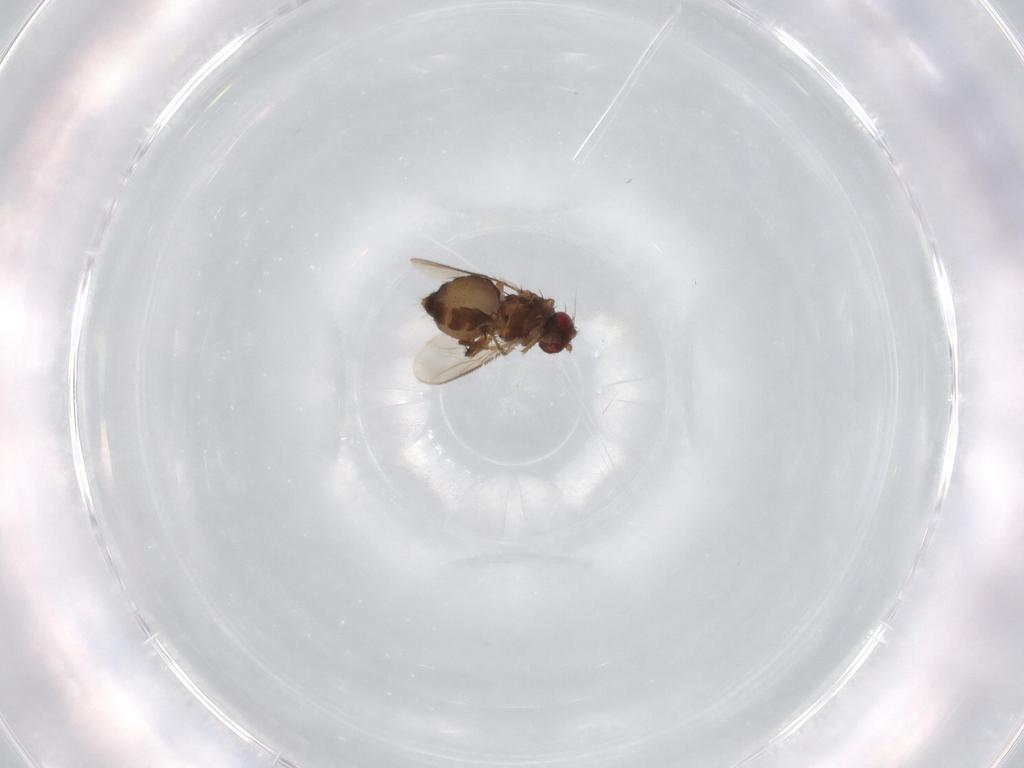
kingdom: Animalia
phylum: Arthropoda
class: Insecta
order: Diptera
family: Sphaeroceridae
